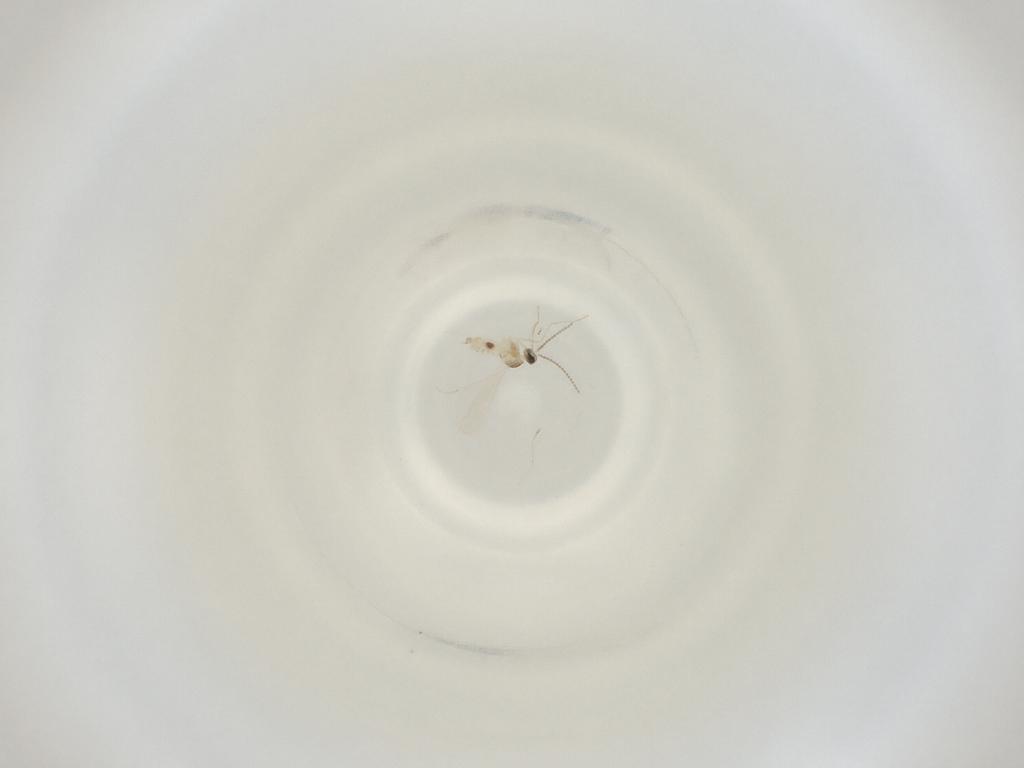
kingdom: Animalia
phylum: Arthropoda
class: Insecta
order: Diptera
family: Cecidomyiidae
